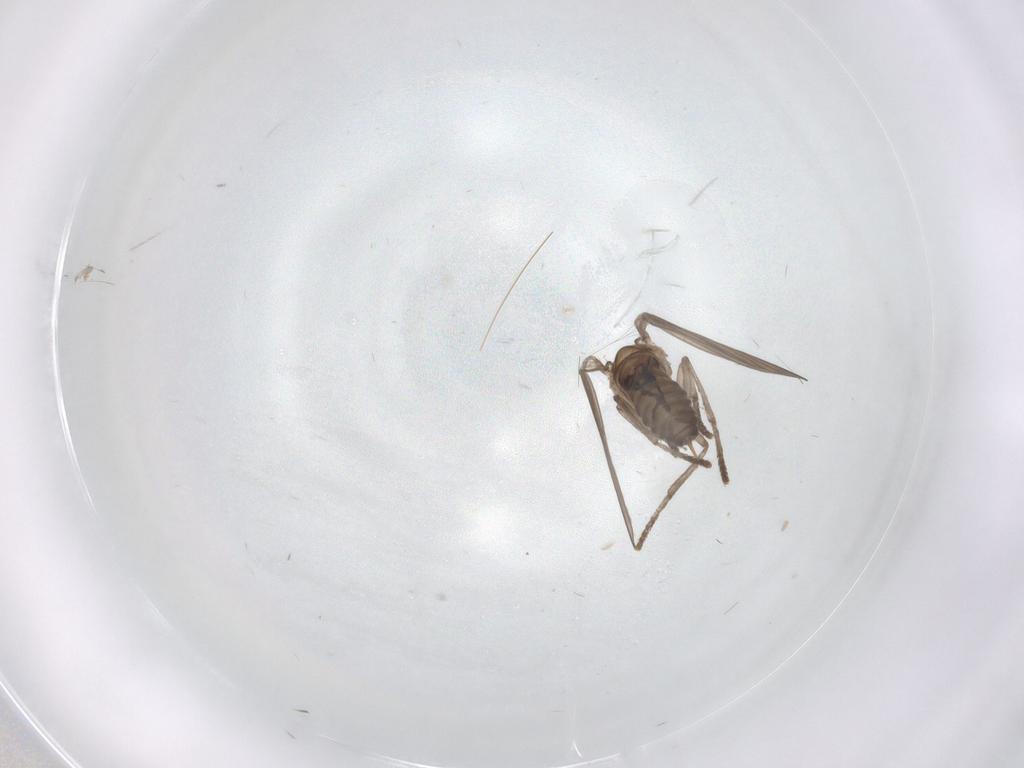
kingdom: Animalia
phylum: Arthropoda
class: Insecta
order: Diptera
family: Psychodidae
